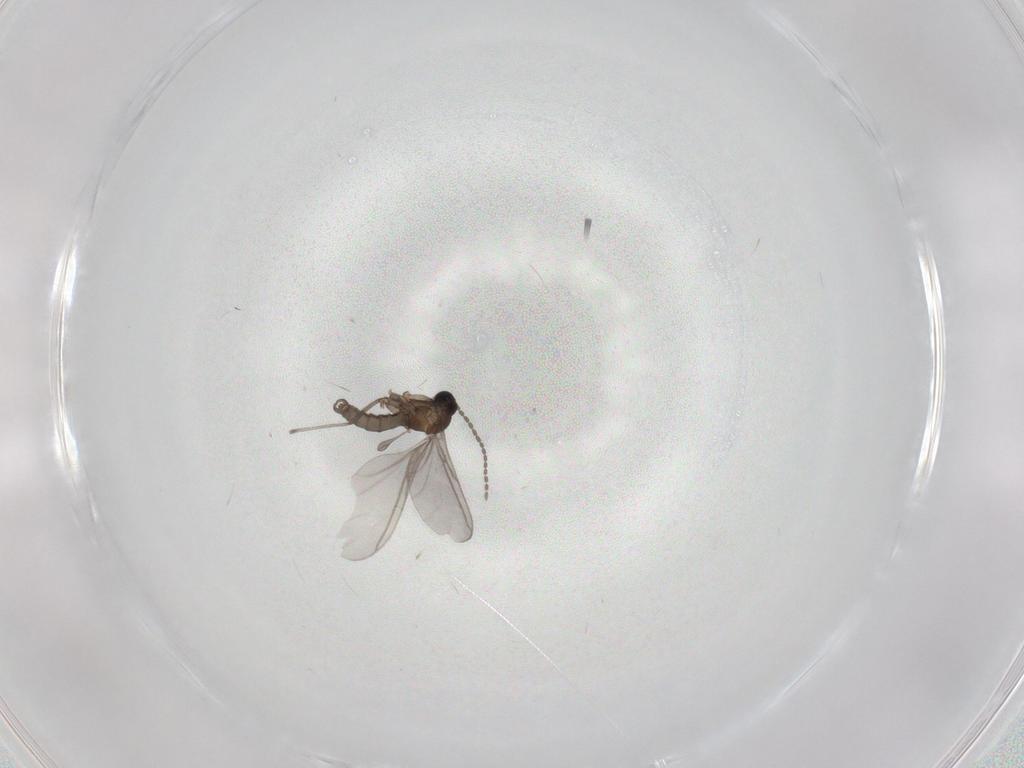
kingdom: Animalia
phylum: Arthropoda
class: Insecta
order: Diptera
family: Sciaridae
